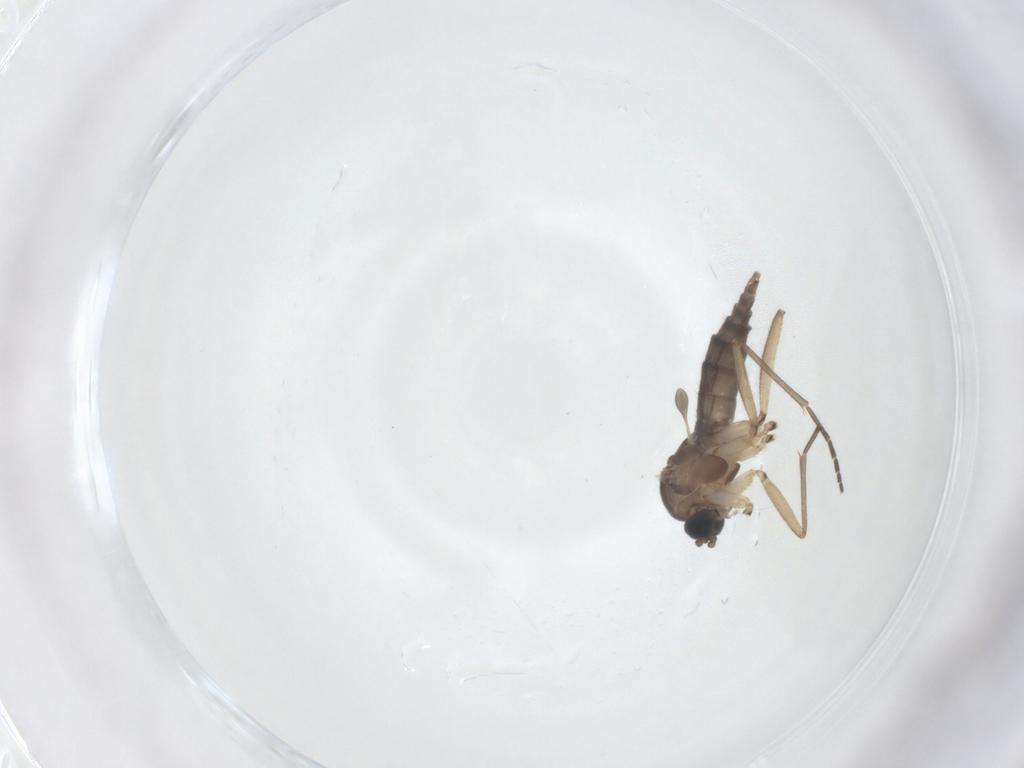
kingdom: Animalia
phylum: Arthropoda
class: Insecta
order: Diptera
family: Sciaridae
